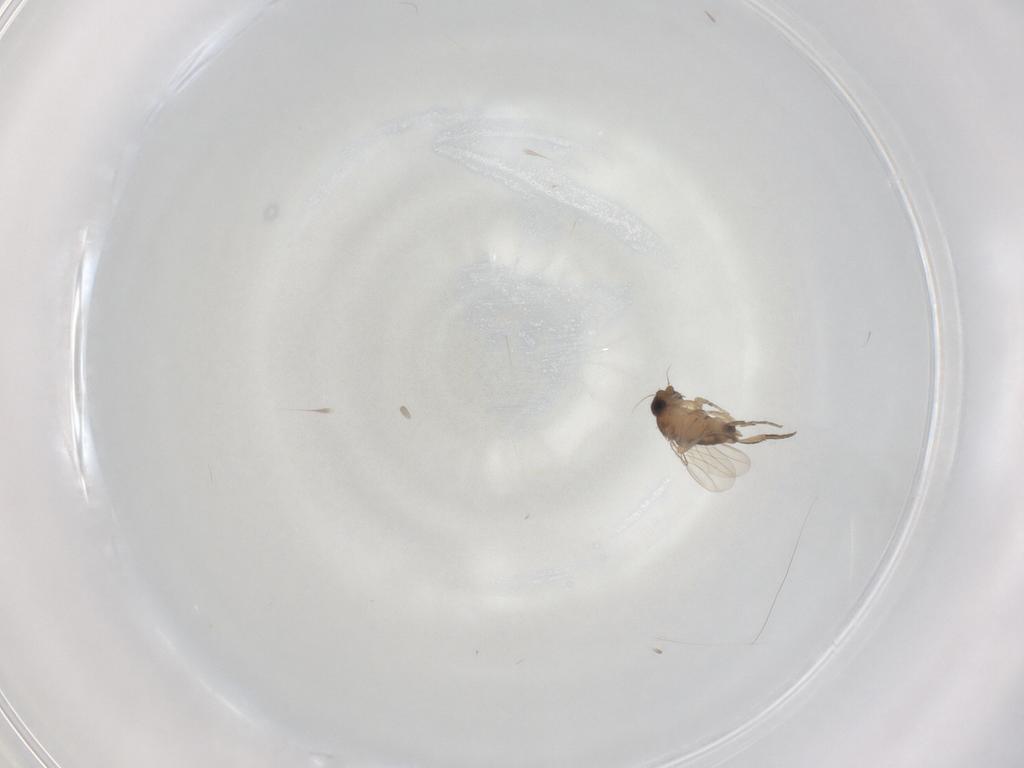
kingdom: Animalia
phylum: Arthropoda
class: Insecta
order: Diptera
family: Phoridae
